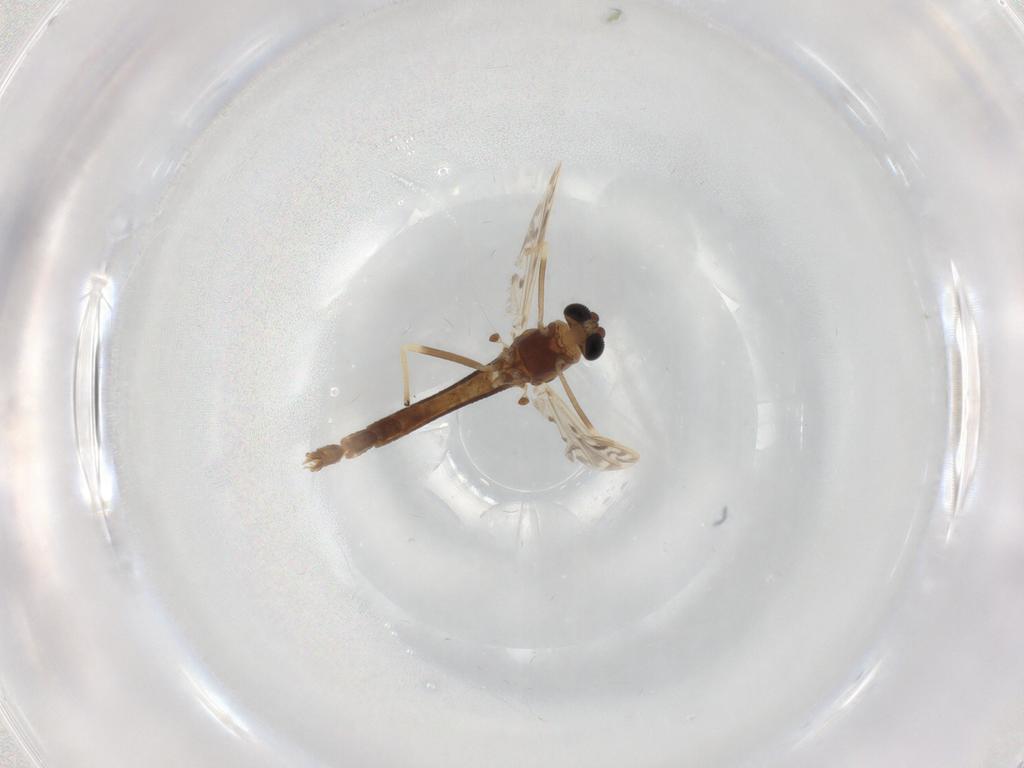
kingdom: Animalia
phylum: Arthropoda
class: Insecta
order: Diptera
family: Chironomidae
